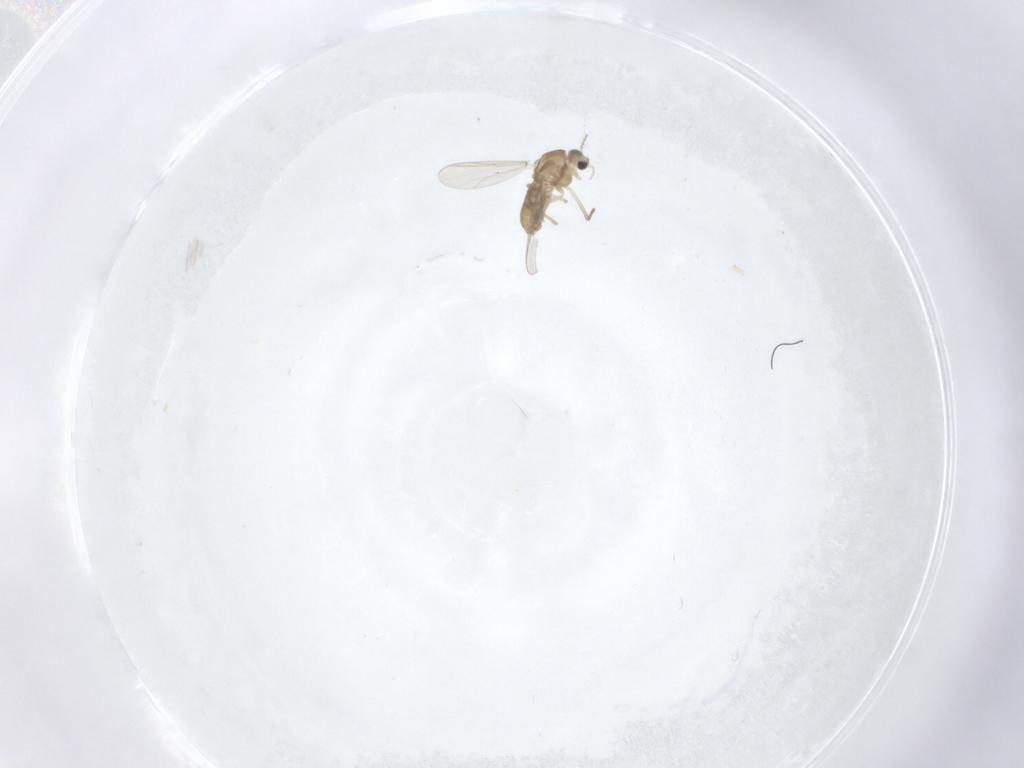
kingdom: Animalia
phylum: Arthropoda
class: Insecta
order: Diptera
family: Chironomidae
